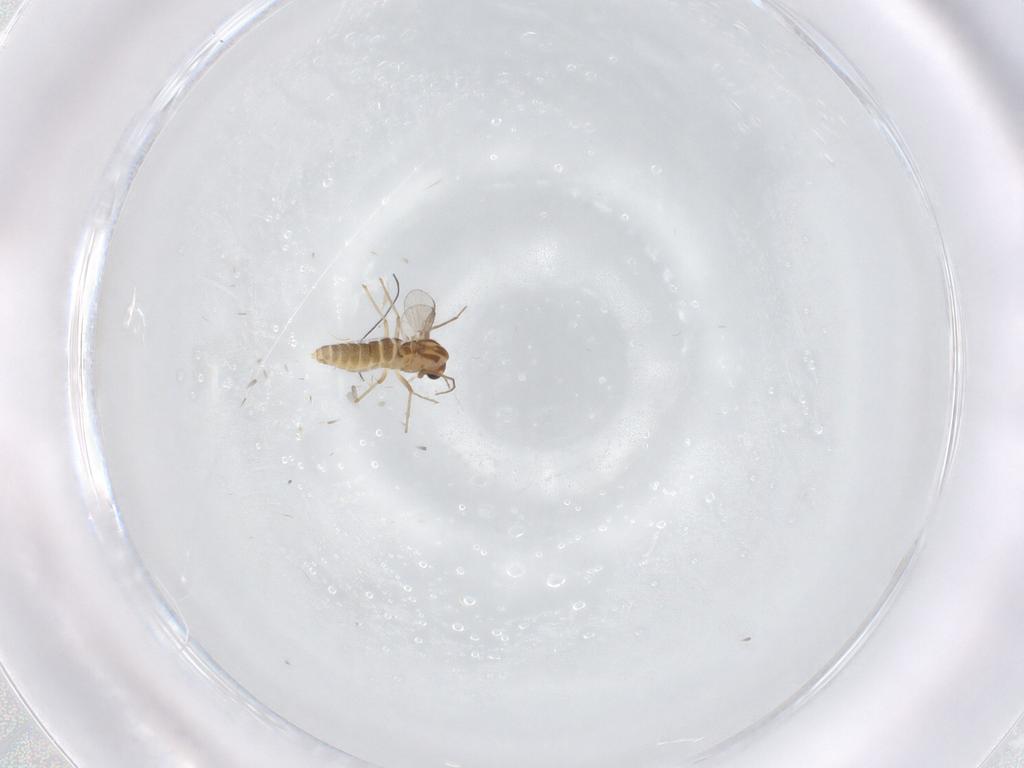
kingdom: Animalia
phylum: Arthropoda
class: Insecta
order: Diptera
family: Chironomidae
